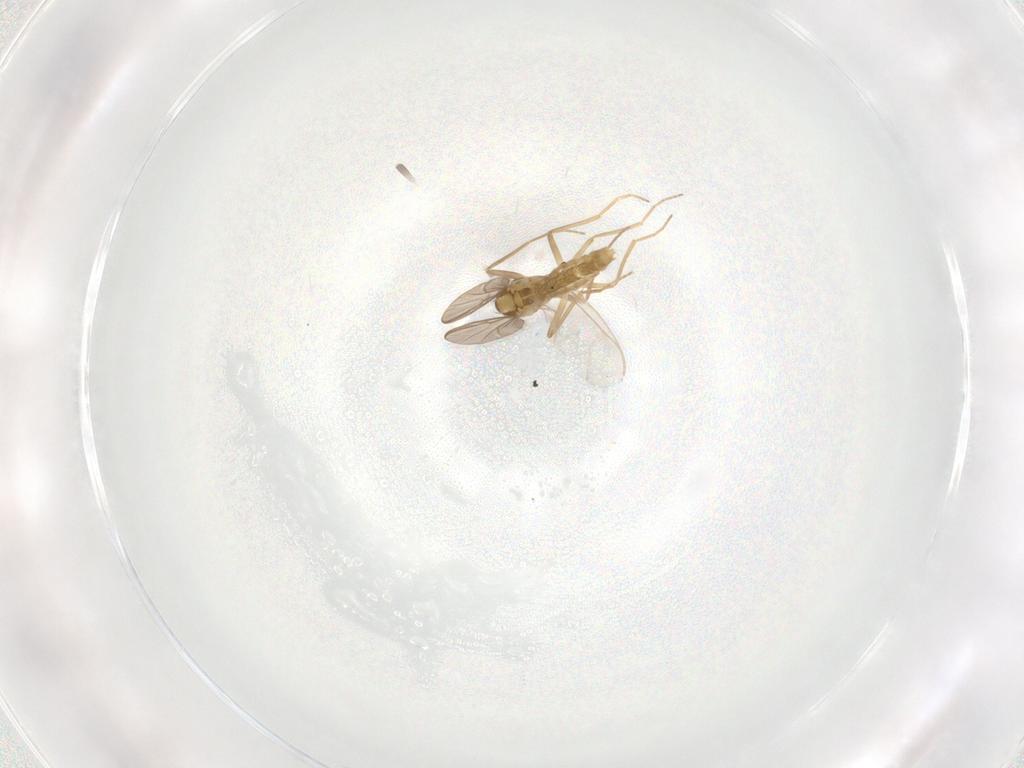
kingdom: Animalia
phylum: Arthropoda
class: Insecta
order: Diptera
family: Chironomidae
